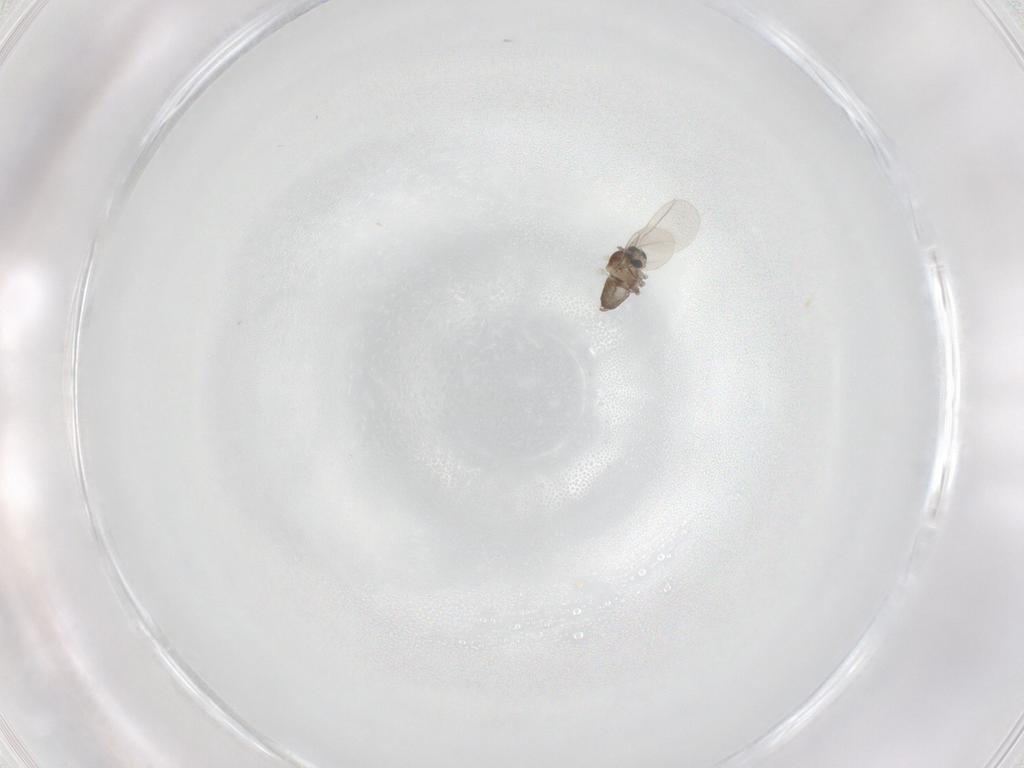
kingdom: Animalia
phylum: Arthropoda
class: Insecta
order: Diptera
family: Cecidomyiidae
